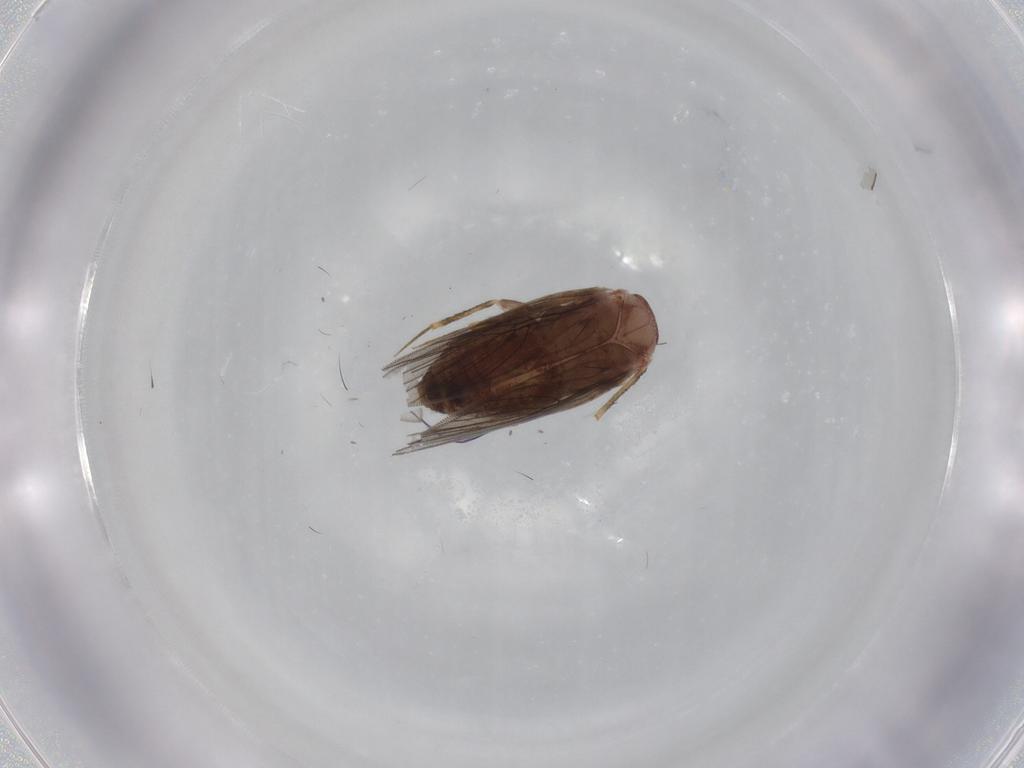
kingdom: Animalia
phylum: Arthropoda
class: Insecta
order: Psocodea
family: Lepidopsocidae
